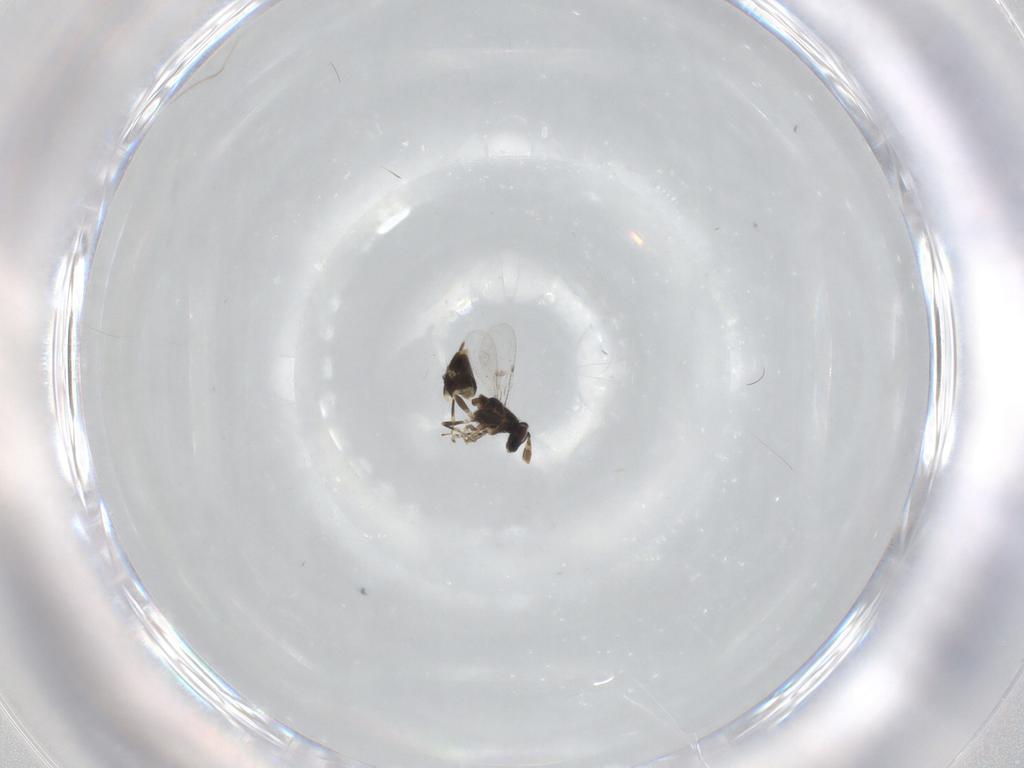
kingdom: Animalia
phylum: Arthropoda
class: Insecta
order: Hymenoptera
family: Encyrtidae
